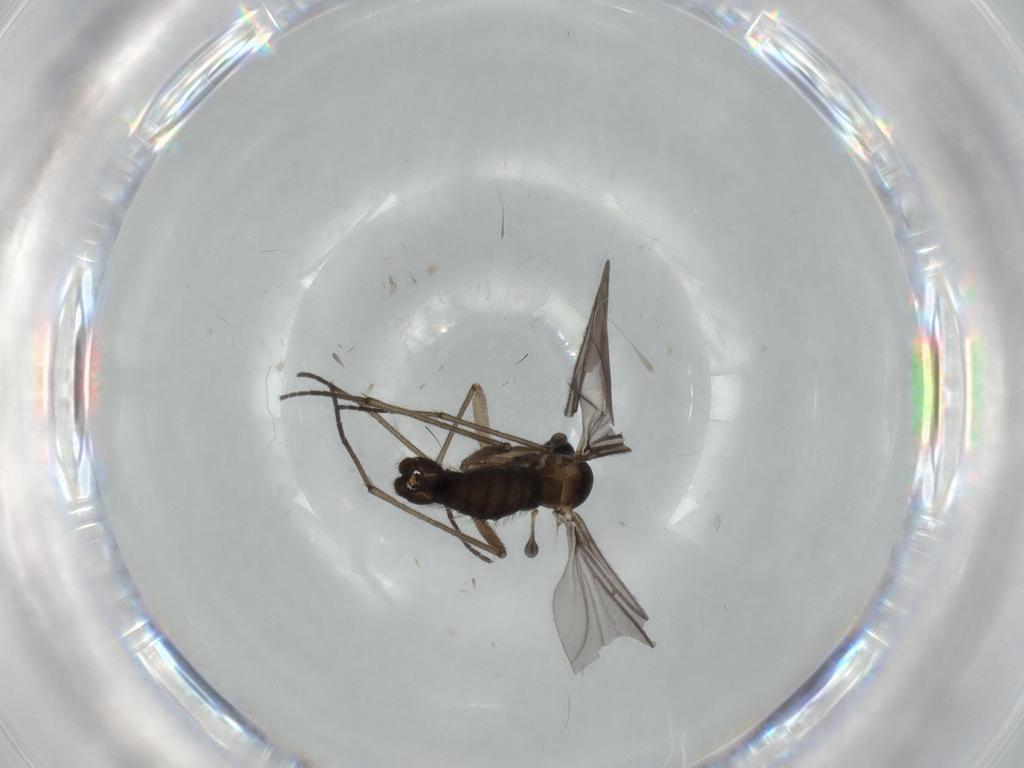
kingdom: Animalia
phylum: Arthropoda
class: Insecta
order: Diptera
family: Sciaridae
